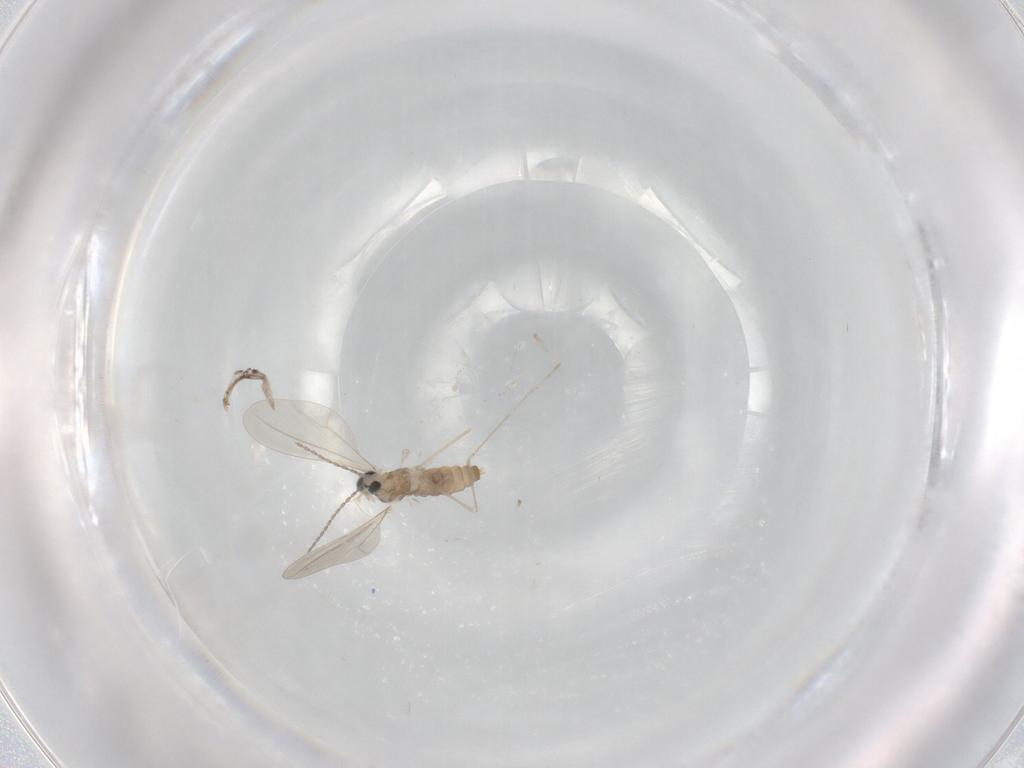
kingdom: Animalia
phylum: Arthropoda
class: Insecta
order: Diptera
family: Cecidomyiidae
